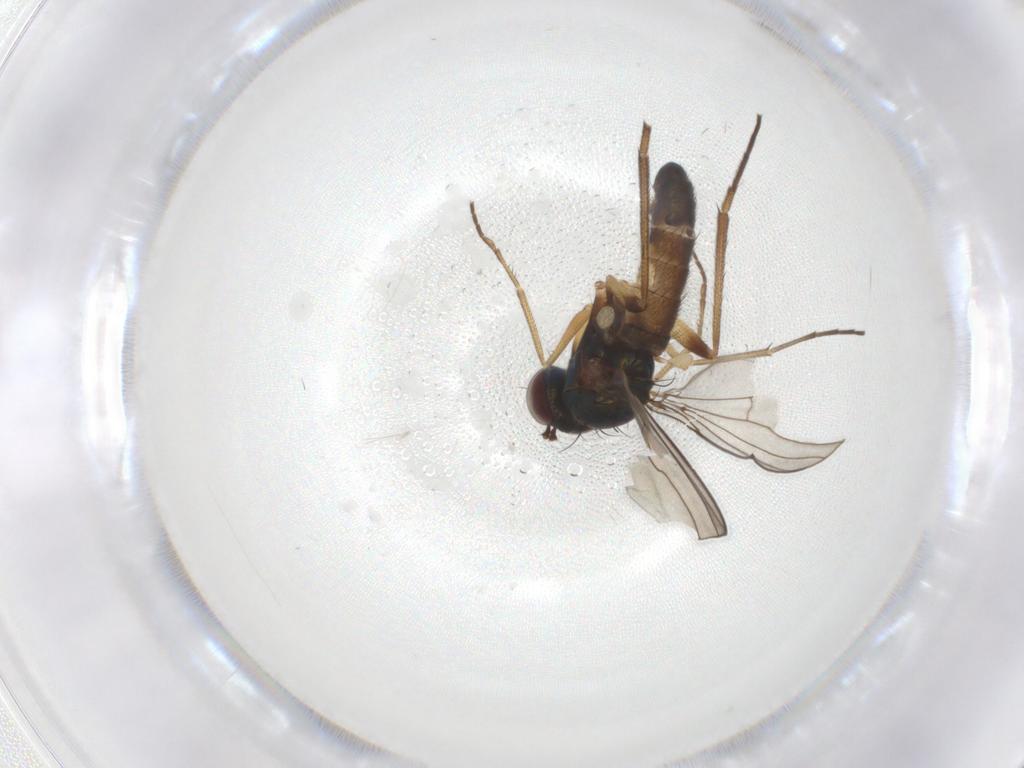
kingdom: Animalia
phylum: Arthropoda
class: Insecta
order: Diptera
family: Dolichopodidae
